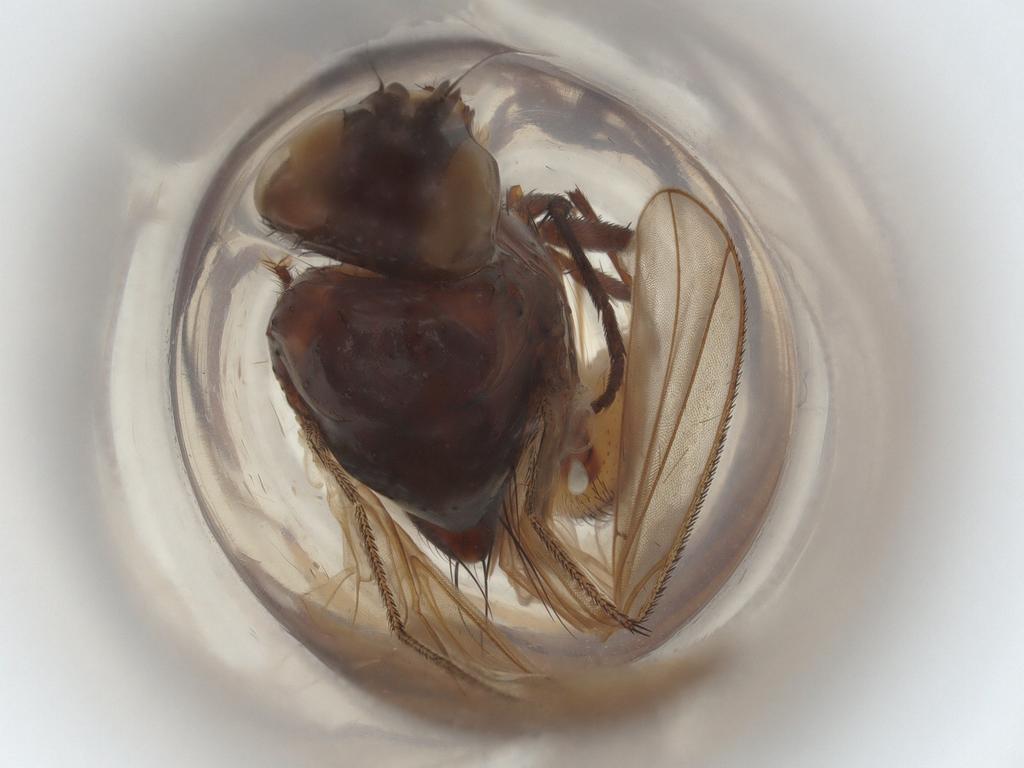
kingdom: Animalia
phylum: Arthropoda
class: Insecta
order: Diptera
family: Anthomyiidae
